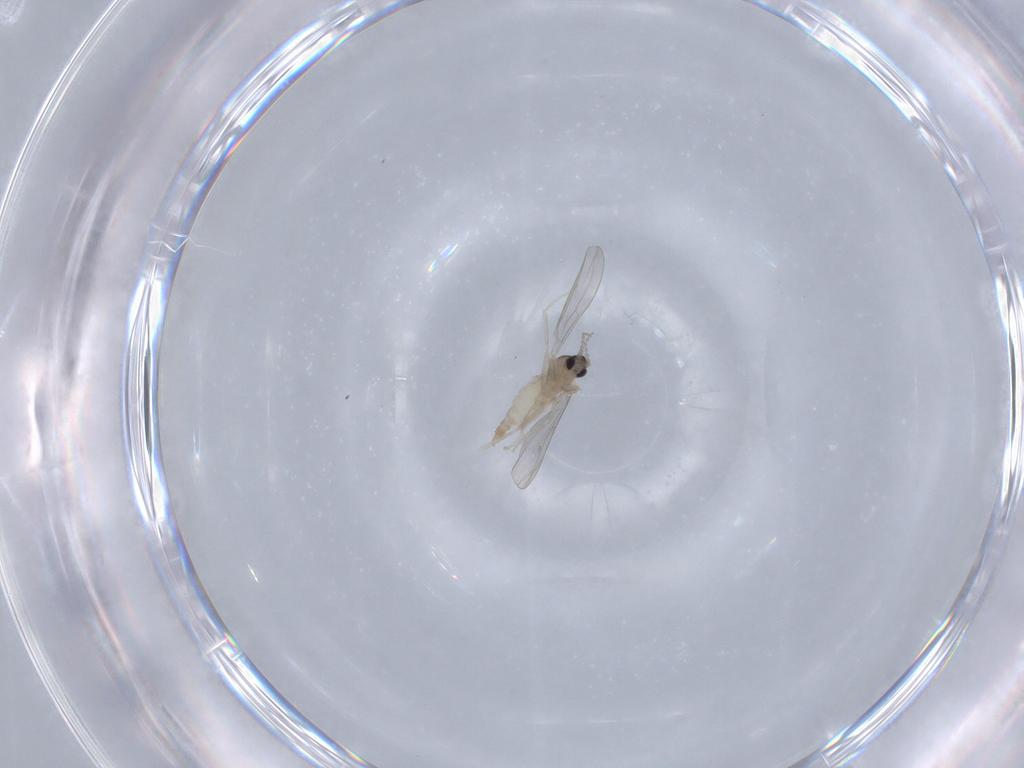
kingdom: Animalia
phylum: Arthropoda
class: Insecta
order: Diptera
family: Cecidomyiidae
